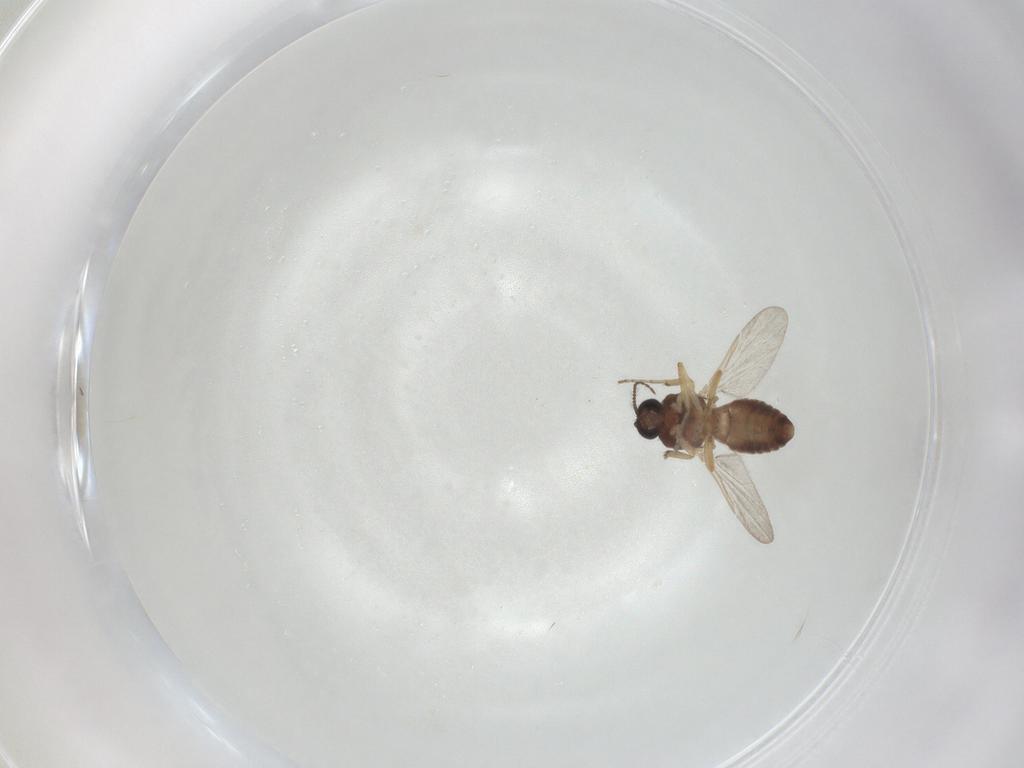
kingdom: Animalia
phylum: Arthropoda
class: Insecta
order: Diptera
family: Ceratopogonidae
